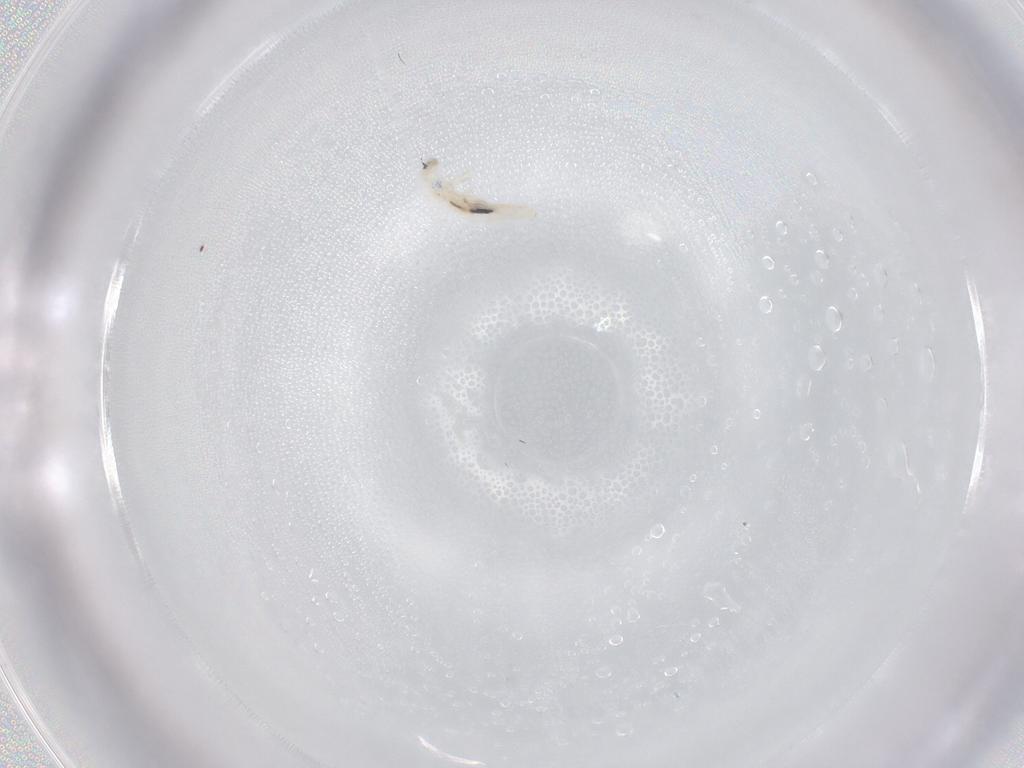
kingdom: Animalia
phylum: Arthropoda
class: Collembola
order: Entomobryomorpha
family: Entomobryidae
